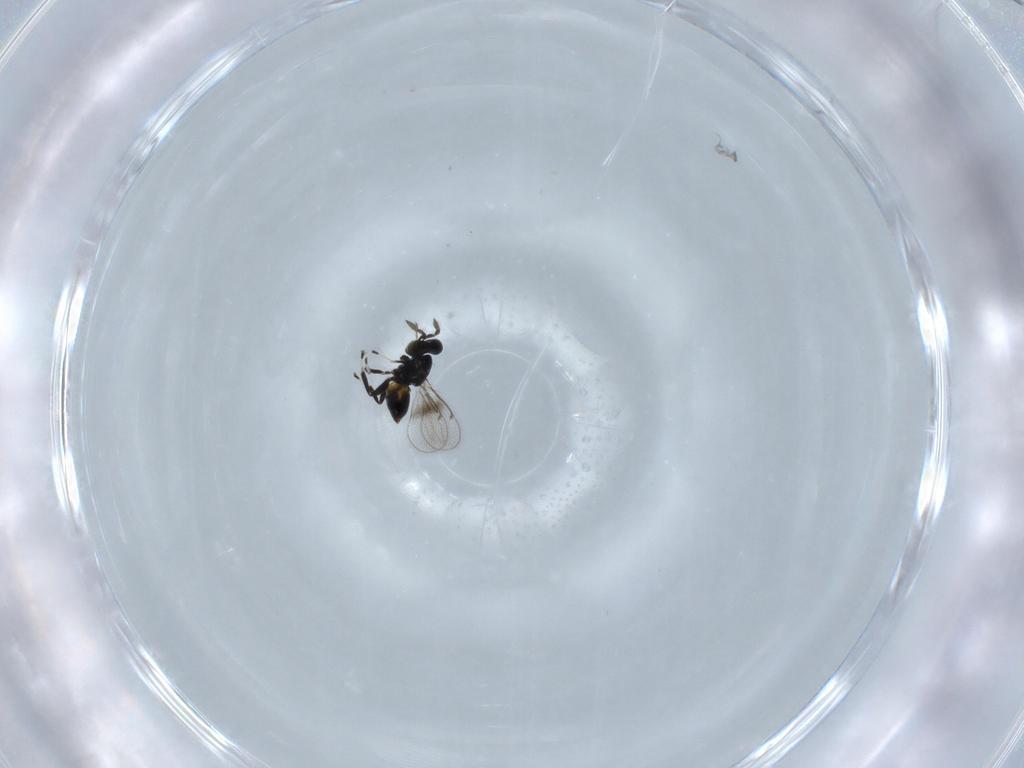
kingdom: Animalia
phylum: Arthropoda
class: Insecta
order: Hymenoptera
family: Eulophidae
